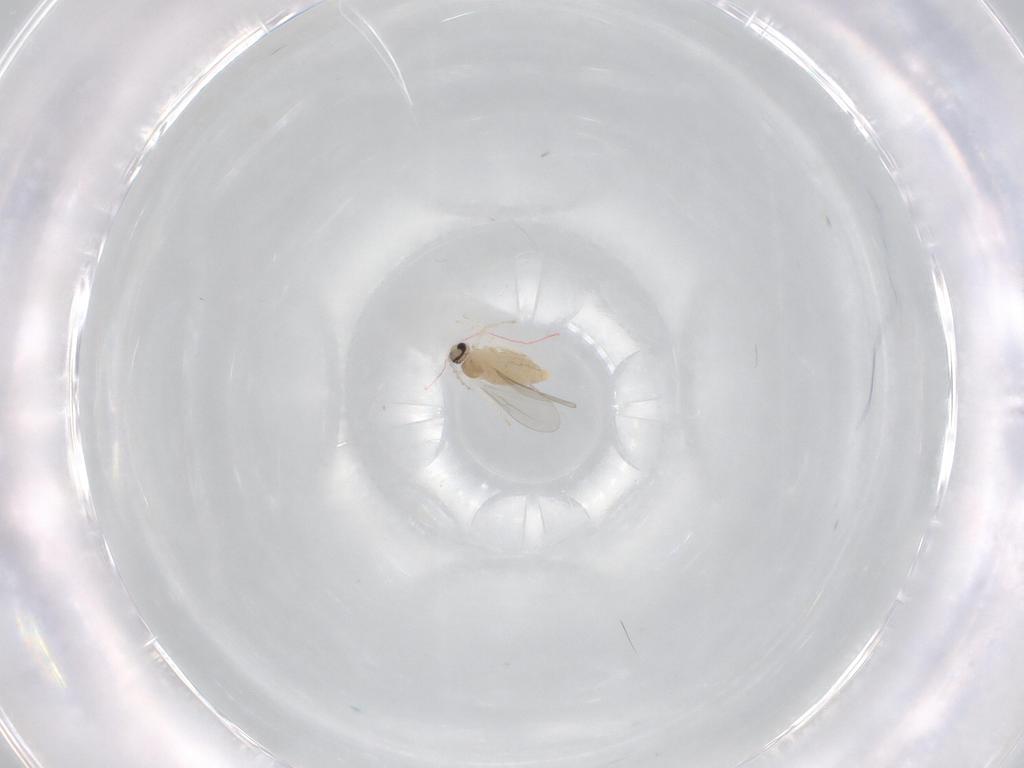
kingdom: Animalia
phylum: Arthropoda
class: Insecta
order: Diptera
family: Cecidomyiidae
